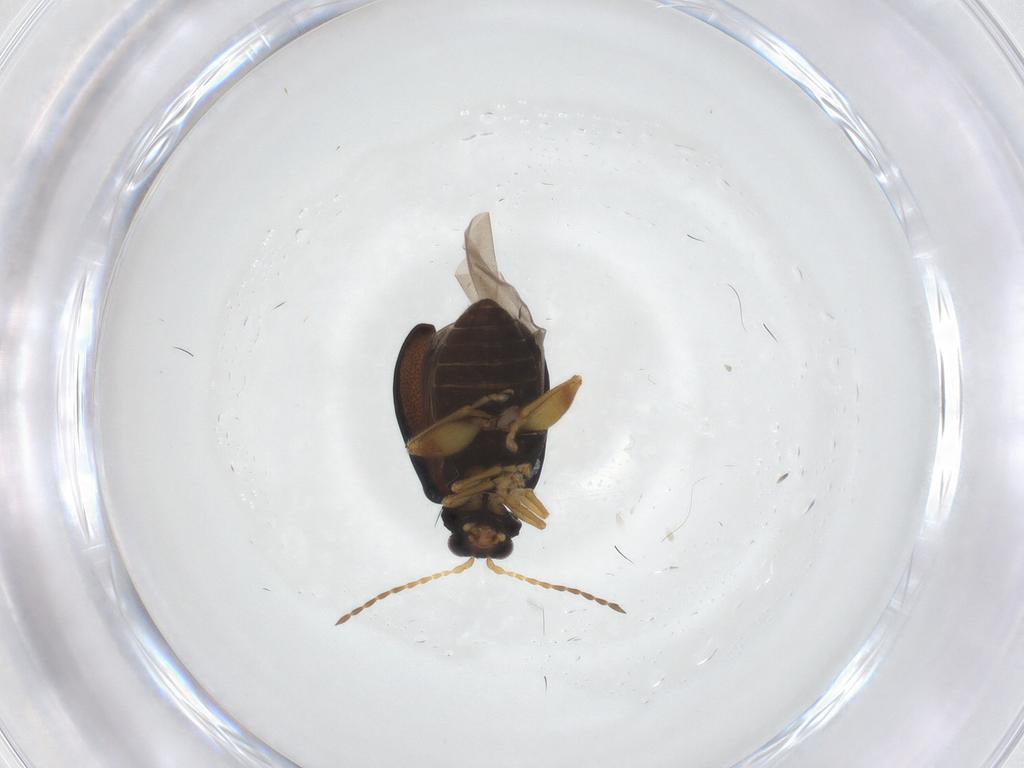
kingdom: Animalia
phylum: Arthropoda
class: Insecta
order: Coleoptera
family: Chrysomelidae
